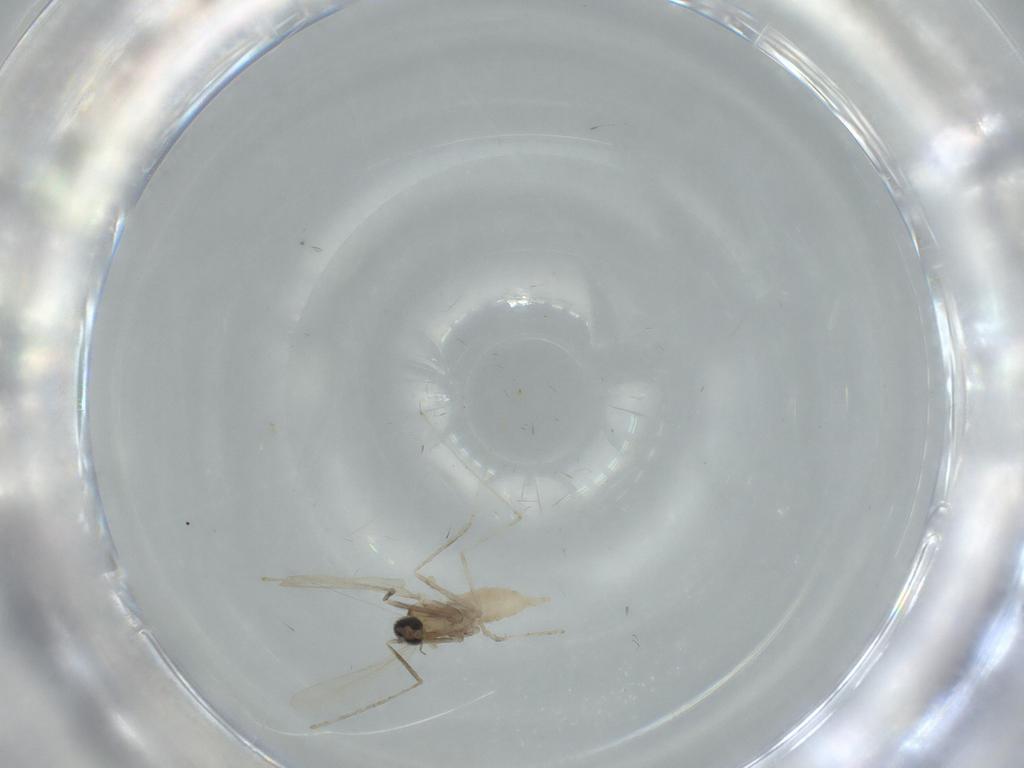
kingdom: Animalia
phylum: Arthropoda
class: Insecta
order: Diptera
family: Cecidomyiidae
